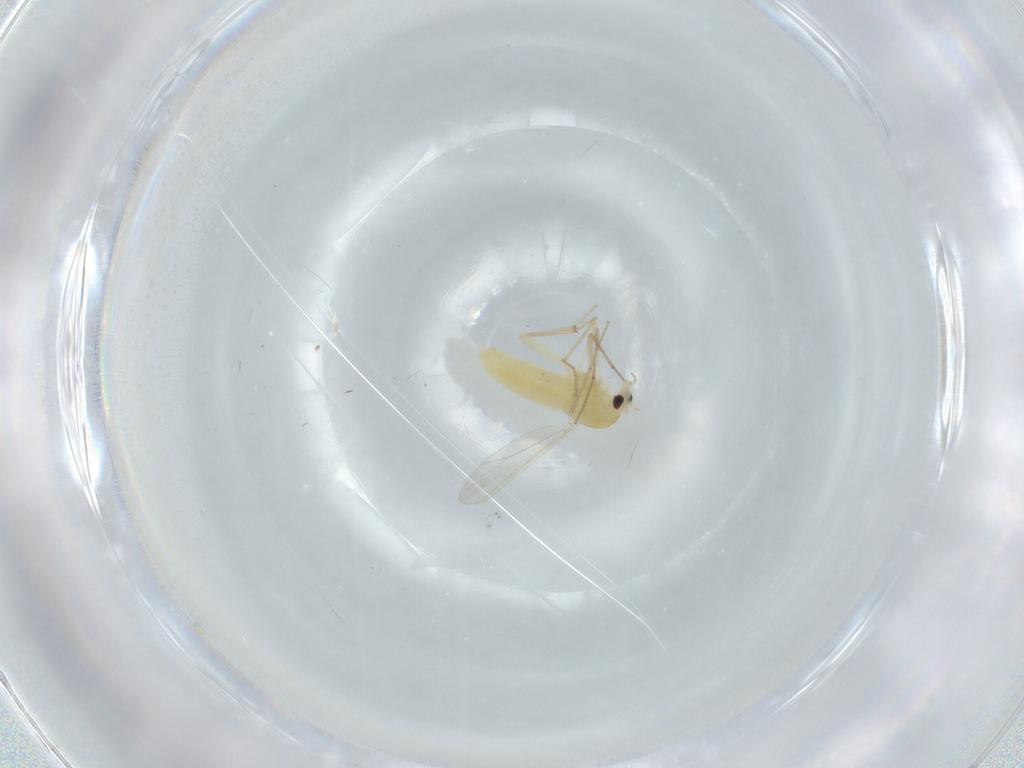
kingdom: Animalia
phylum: Arthropoda
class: Insecta
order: Diptera
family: Chironomidae
